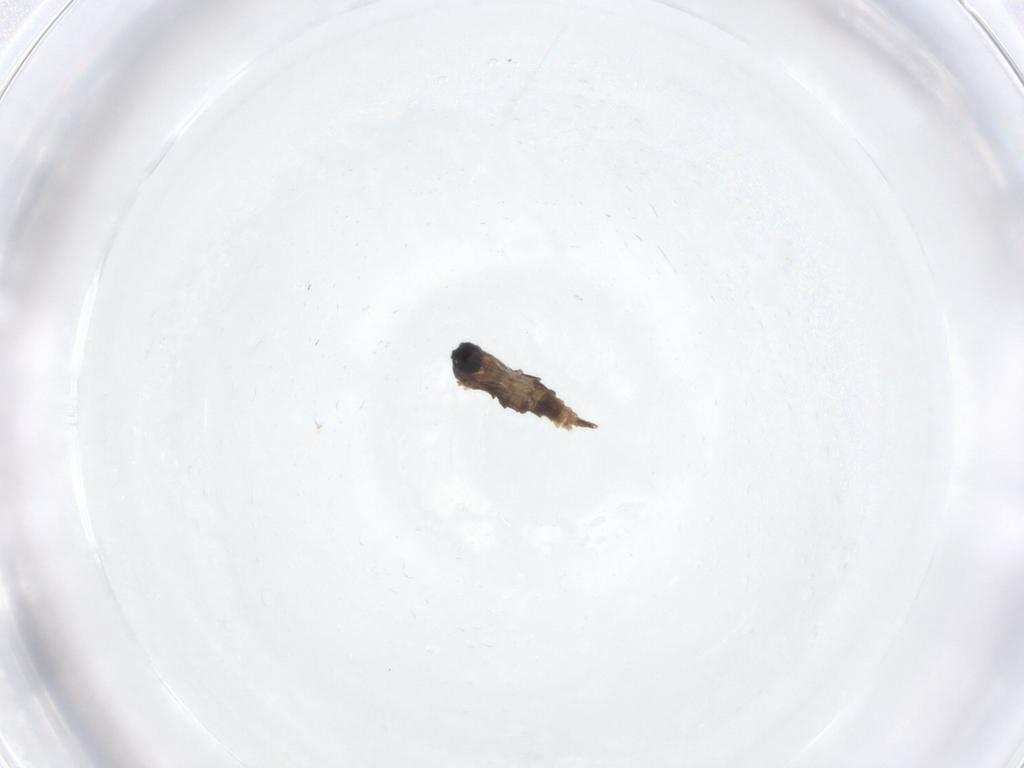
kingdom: Animalia
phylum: Arthropoda
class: Insecta
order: Diptera
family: Sciaridae
